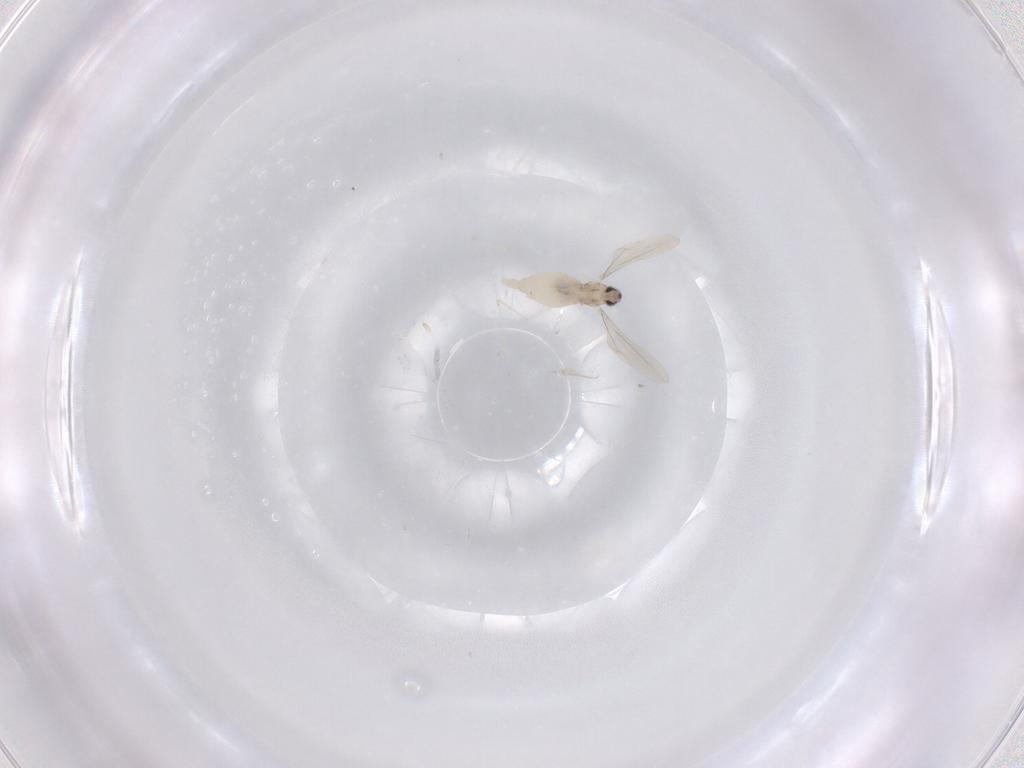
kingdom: Animalia
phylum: Arthropoda
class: Insecta
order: Diptera
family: Cecidomyiidae
